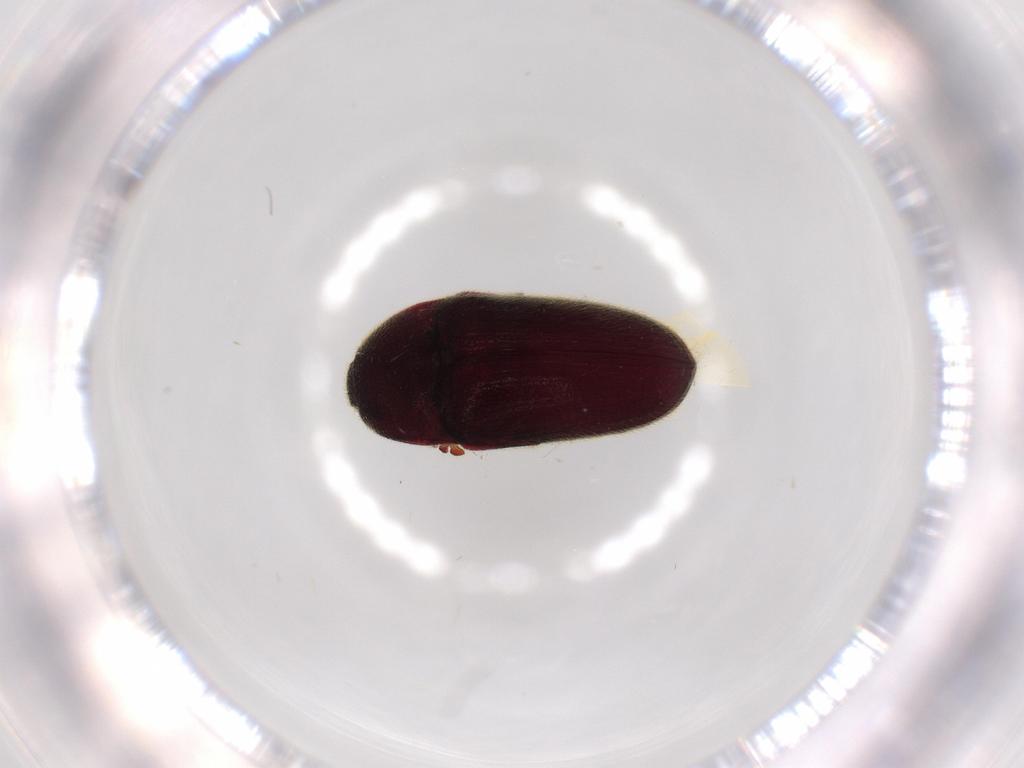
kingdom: Animalia
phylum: Arthropoda
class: Insecta
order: Coleoptera
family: Throscidae
